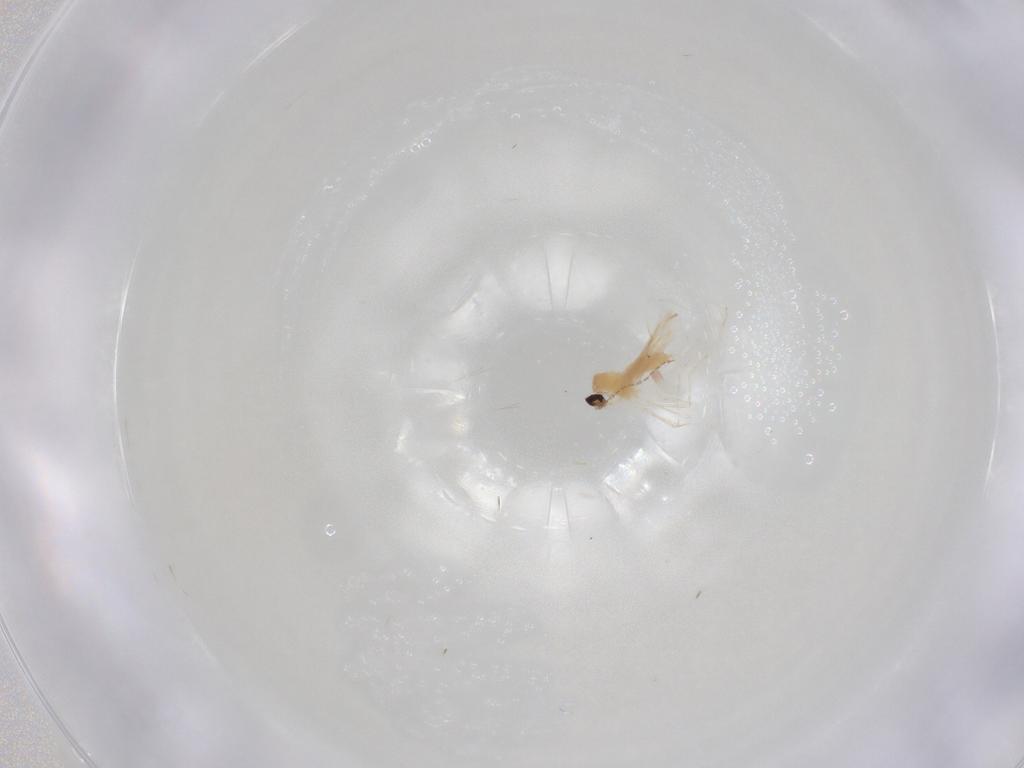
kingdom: Animalia
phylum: Arthropoda
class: Insecta
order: Diptera
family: Cecidomyiidae
